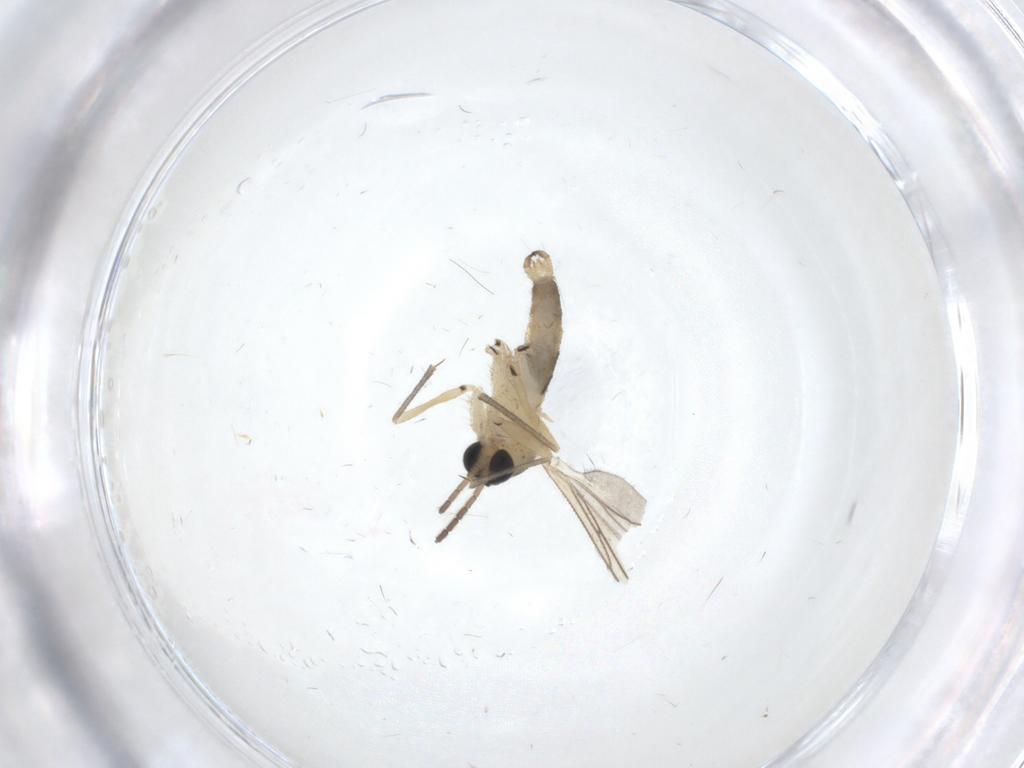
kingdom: Animalia
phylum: Arthropoda
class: Insecta
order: Diptera
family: Sciaridae
